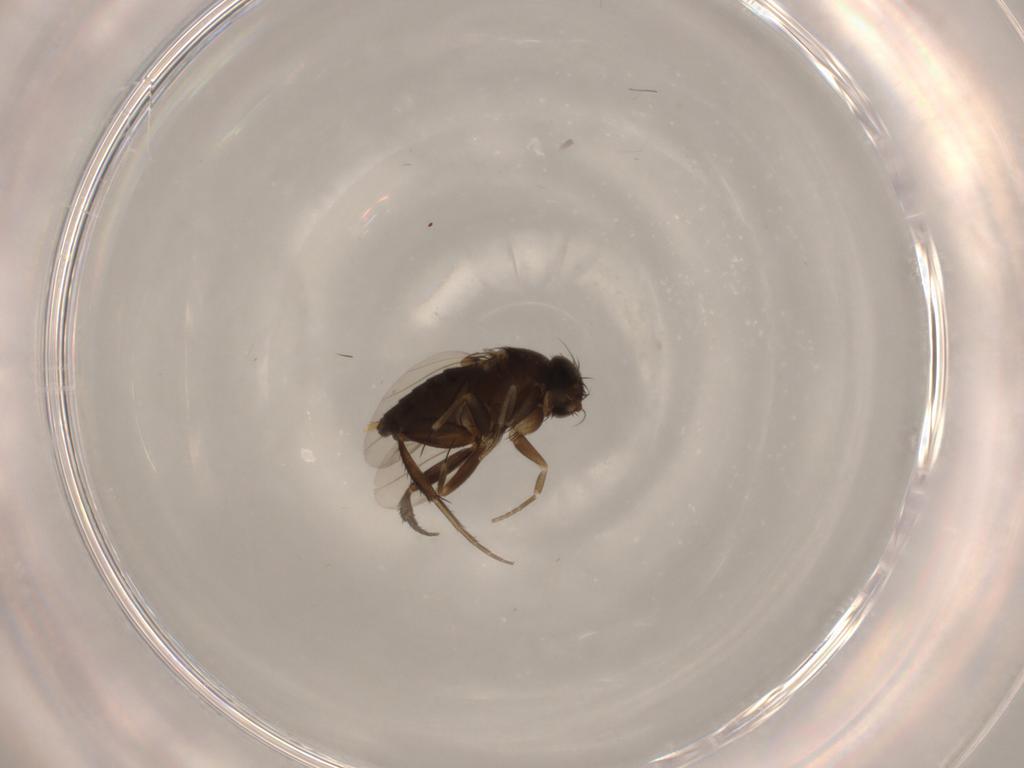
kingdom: Animalia
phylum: Arthropoda
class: Insecta
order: Diptera
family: Phoridae
